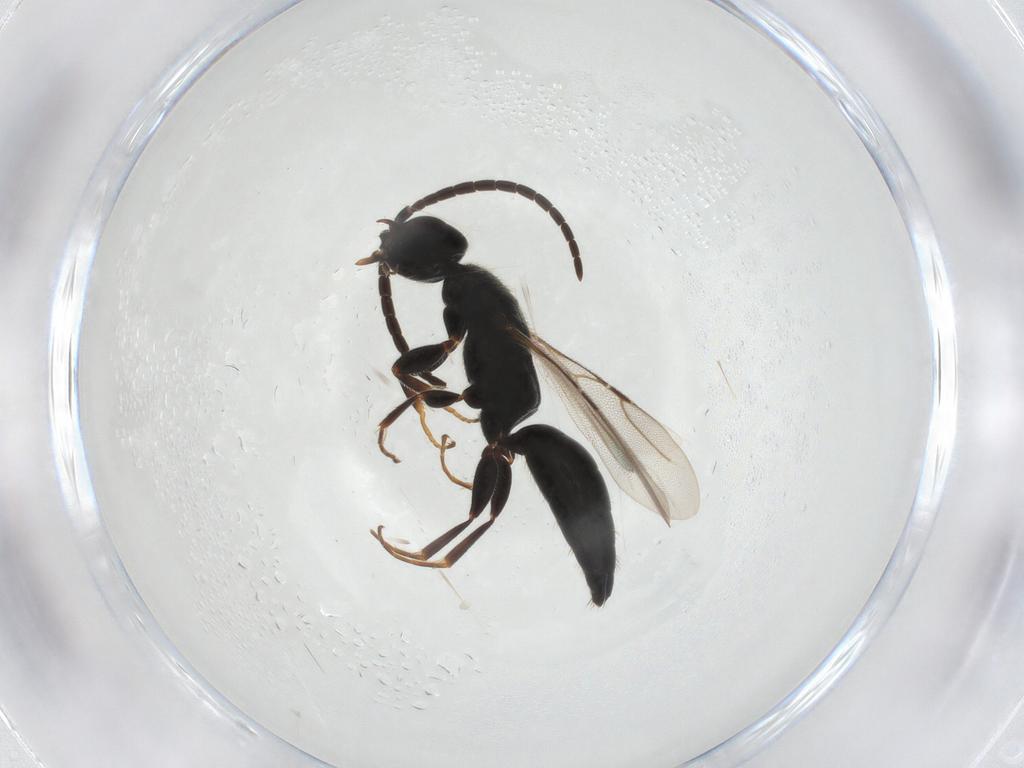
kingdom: Animalia
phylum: Arthropoda
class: Insecta
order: Hymenoptera
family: Bethylidae
